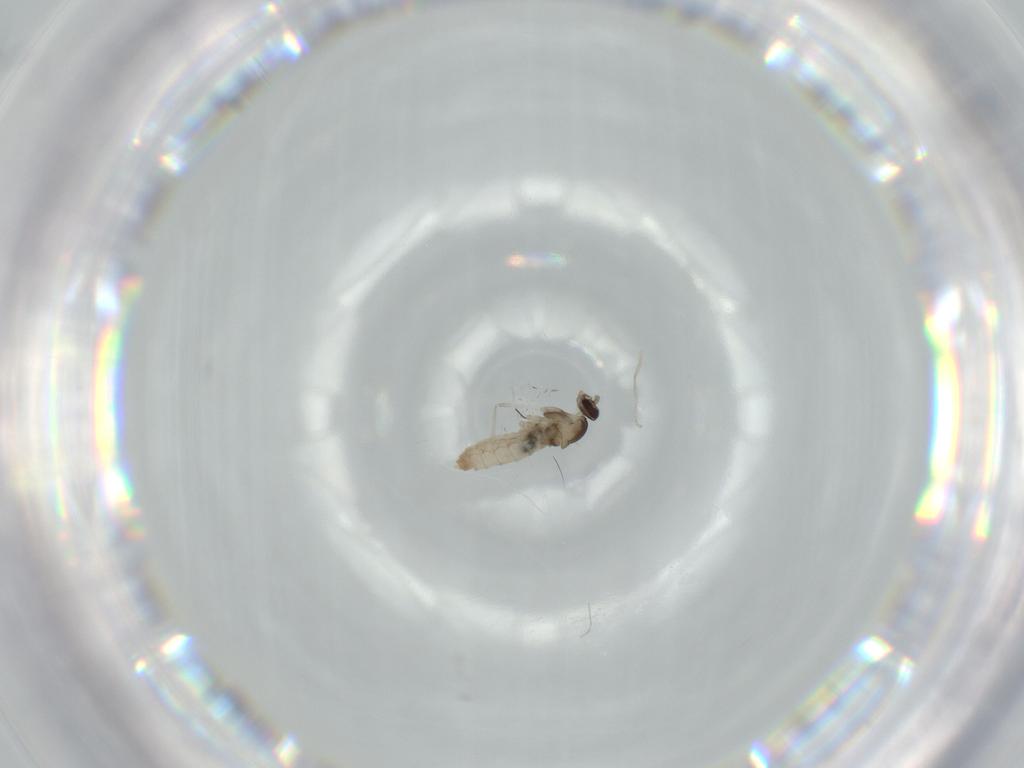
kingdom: Animalia
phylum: Arthropoda
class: Insecta
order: Diptera
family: Cecidomyiidae
